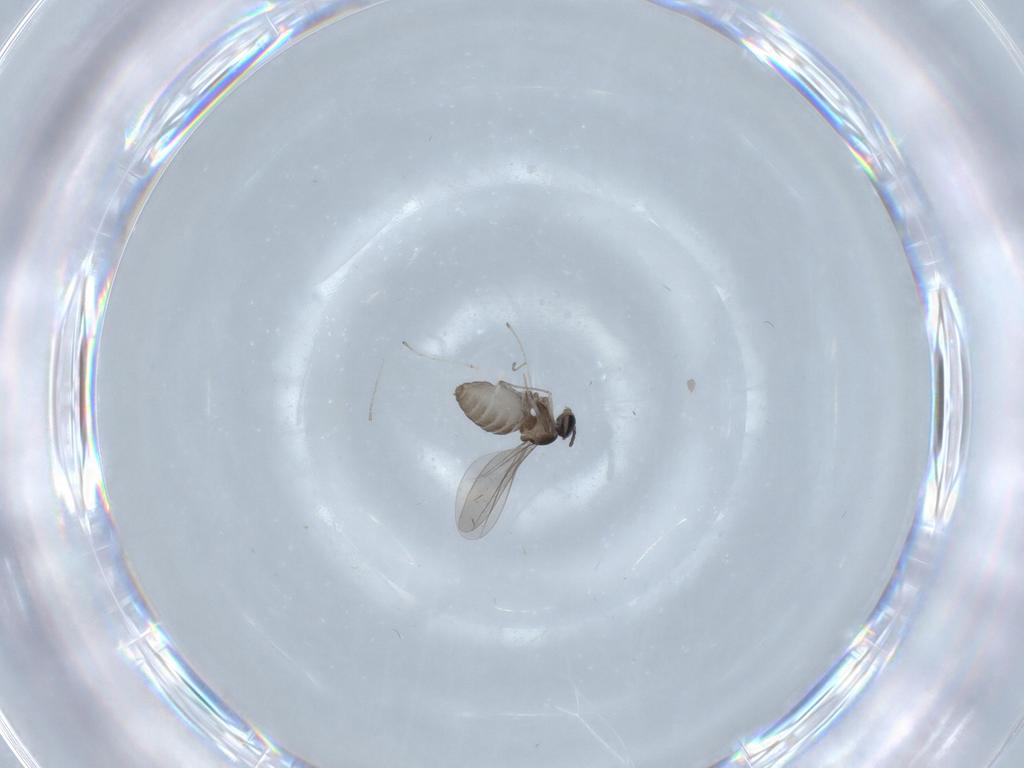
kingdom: Animalia
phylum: Arthropoda
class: Insecta
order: Diptera
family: Cecidomyiidae
